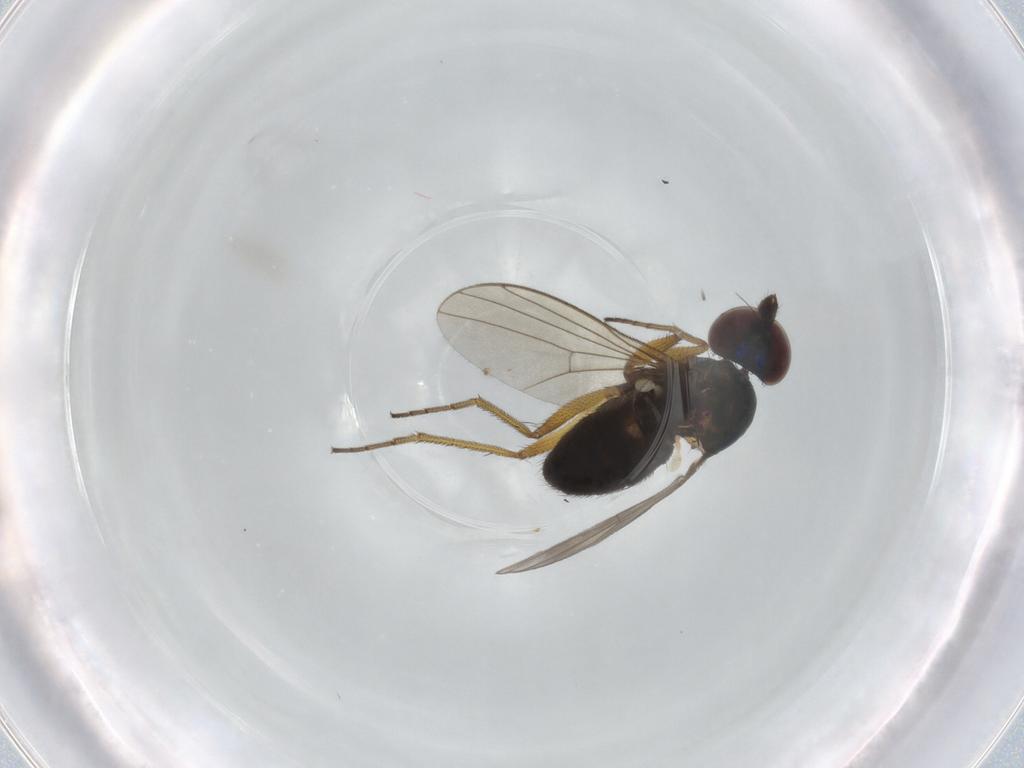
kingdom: Animalia
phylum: Arthropoda
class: Insecta
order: Diptera
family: Dolichopodidae
